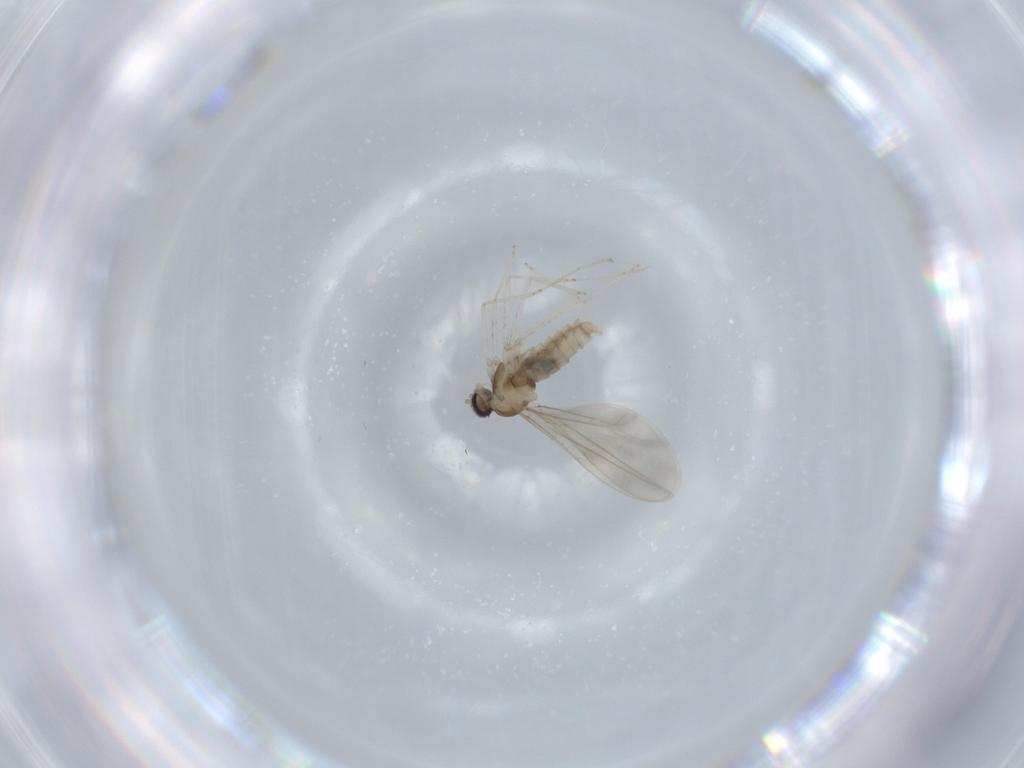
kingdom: Animalia
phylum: Arthropoda
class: Insecta
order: Diptera
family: Cecidomyiidae
